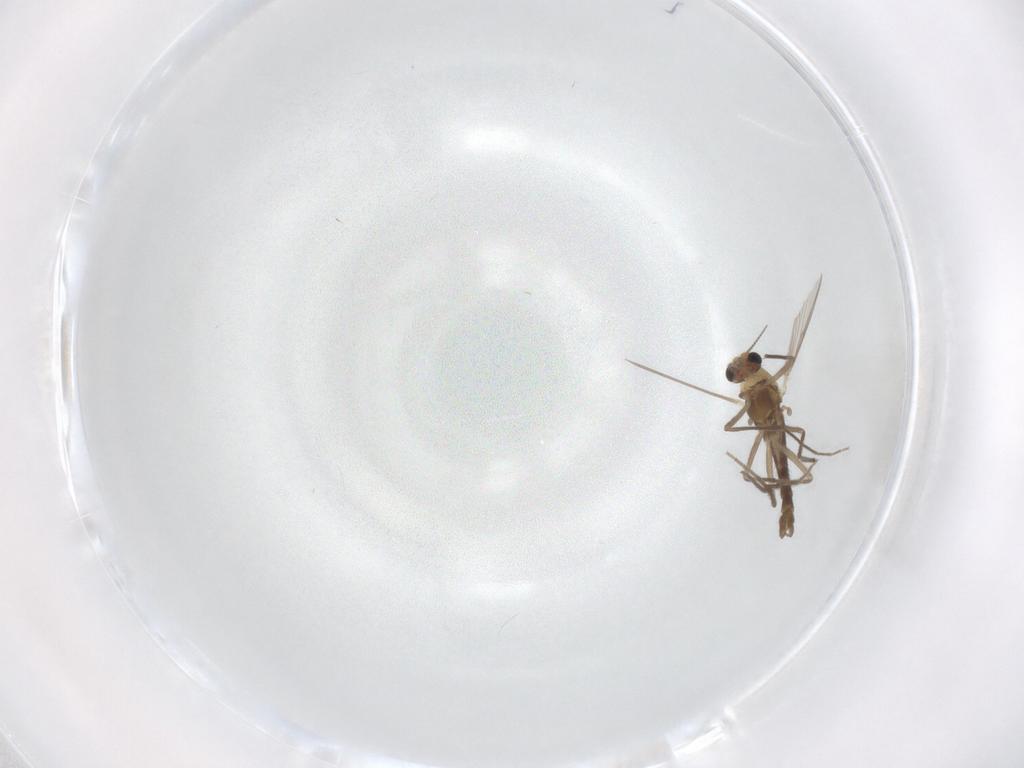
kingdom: Animalia
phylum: Arthropoda
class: Insecta
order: Diptera
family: Chironomidae
